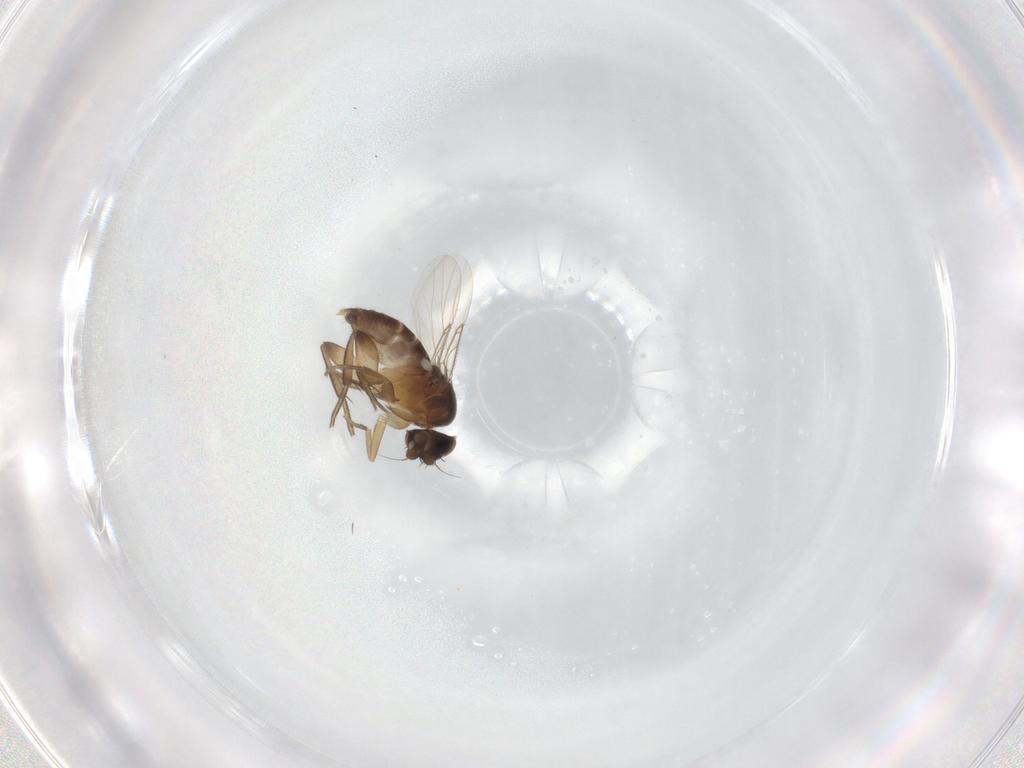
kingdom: Animalia
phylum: Arthropoda
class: Insecta
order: Diptera
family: Phoridae
